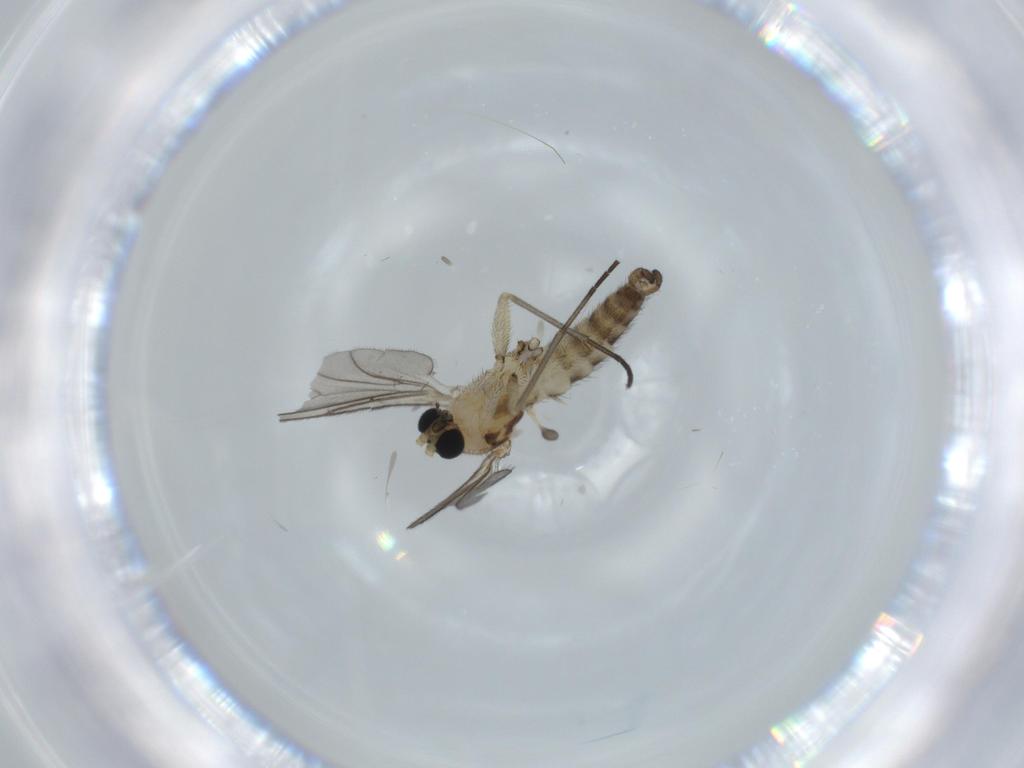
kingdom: Animalia
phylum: Arthropoda
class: Insecta
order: Diptera
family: Sciaridae
